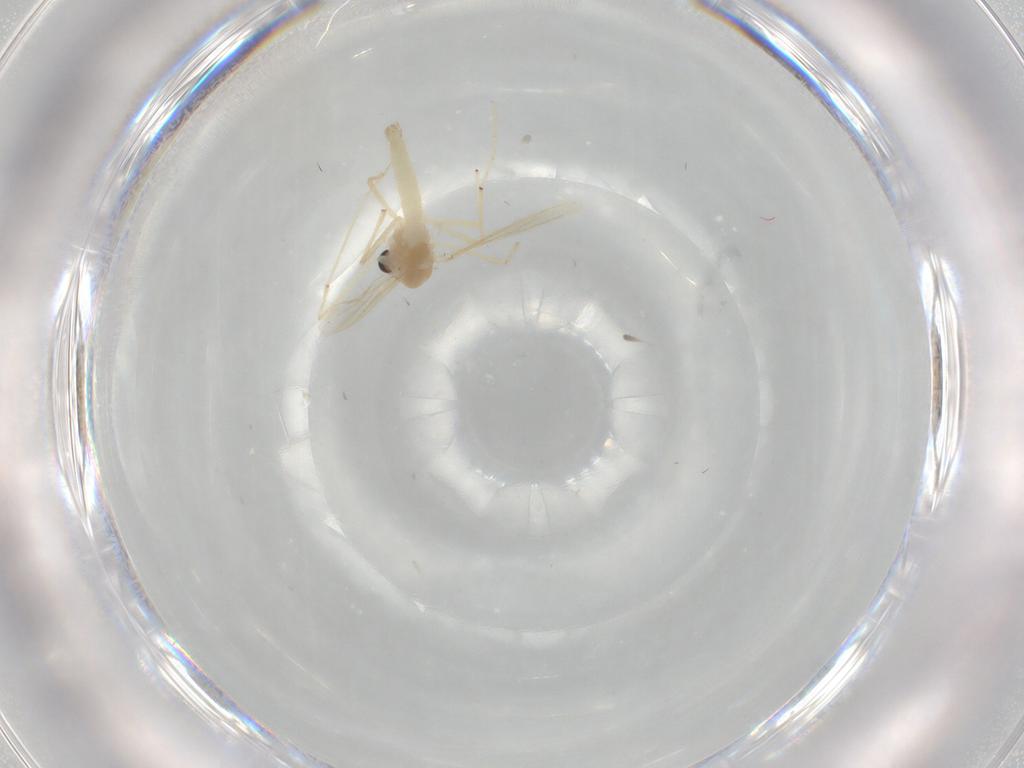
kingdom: Animalia
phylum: Arthropoda
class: Insecta
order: Diptera
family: Chironomidae
